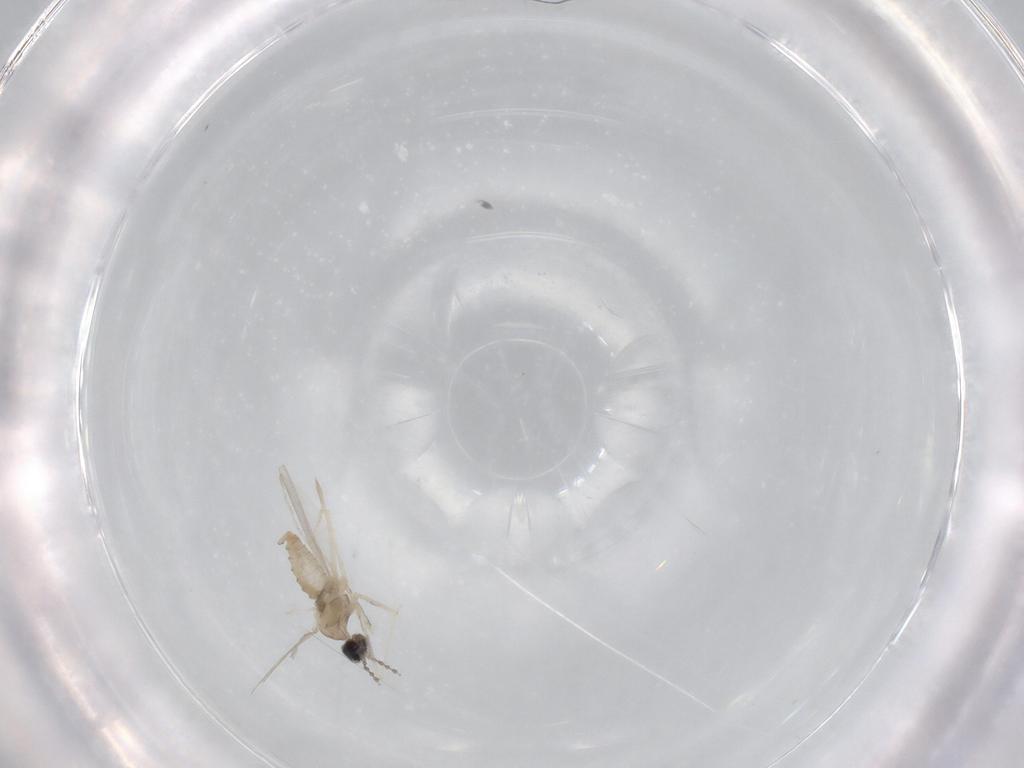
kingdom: Animalia
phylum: Arthropoda
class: Insecta
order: Diptera
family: Cecidomyiidae
